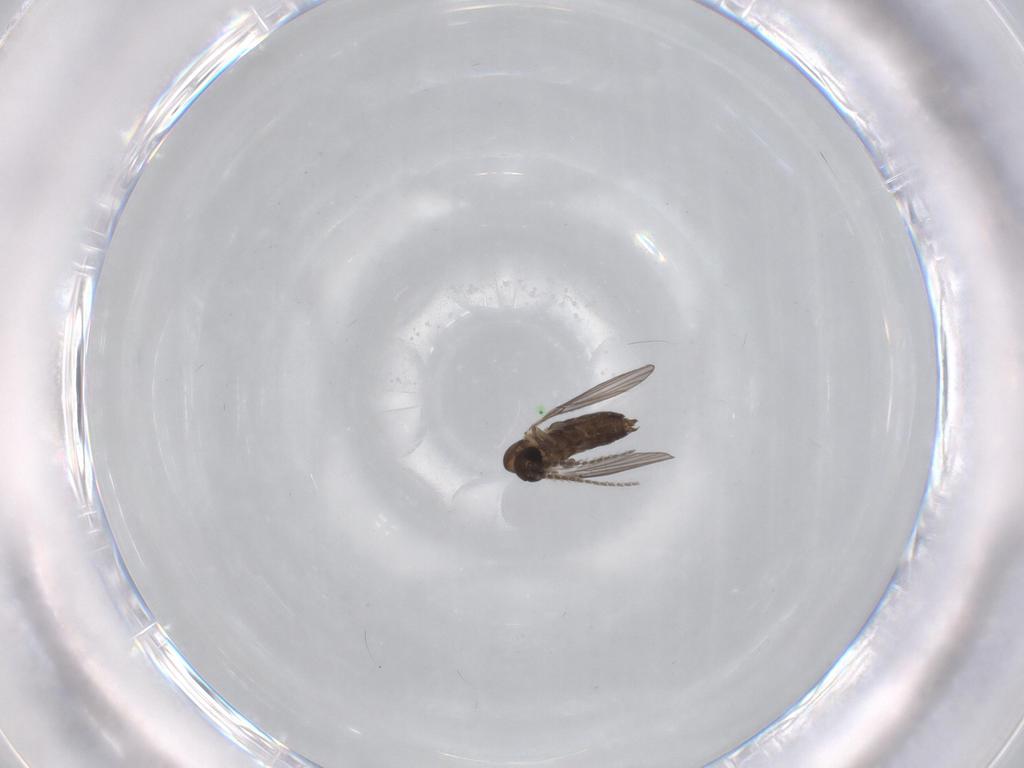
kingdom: Animalia
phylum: Arthropoda
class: Insecta
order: Diptera
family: Psychodidae
